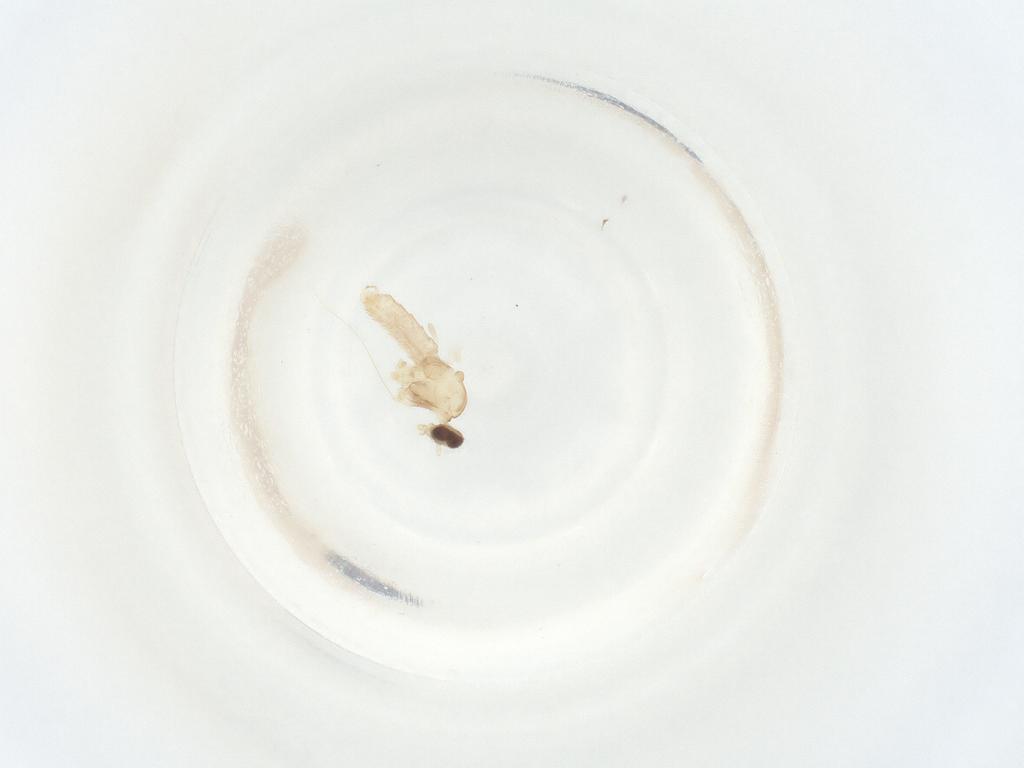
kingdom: Animalia
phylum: Arthropoda
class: Insecta
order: Diptera
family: Cecidomyiidae
